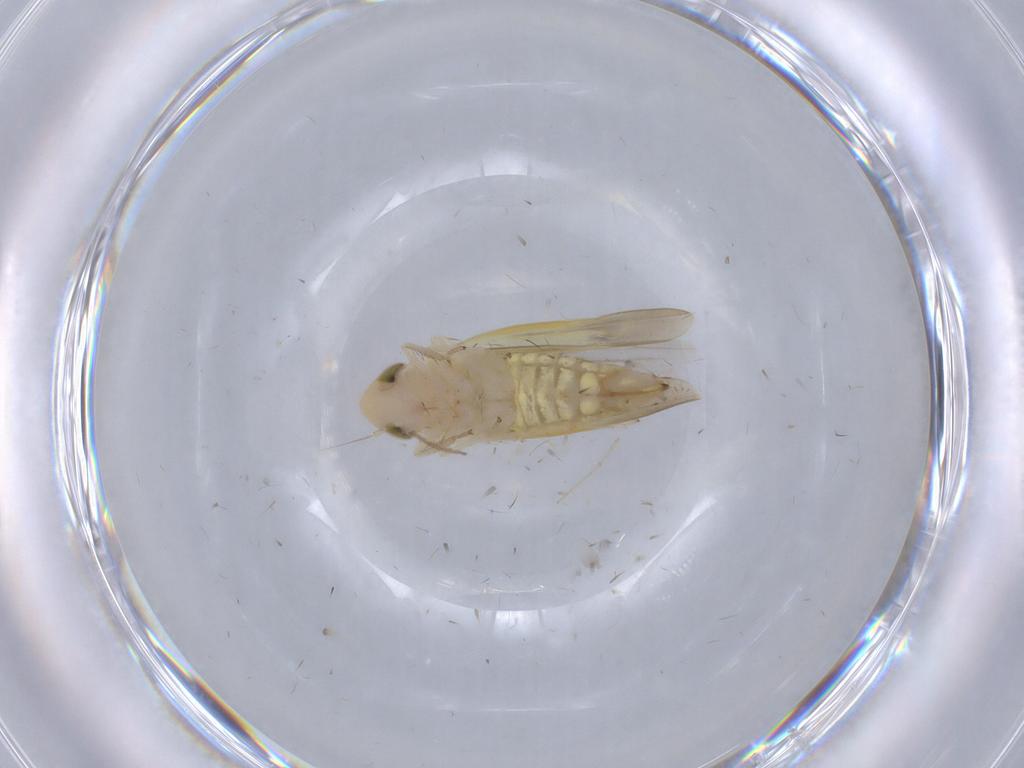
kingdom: Animalia
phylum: Arthropoda
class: Insecta
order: Hemiptera
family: Cicadellidae
